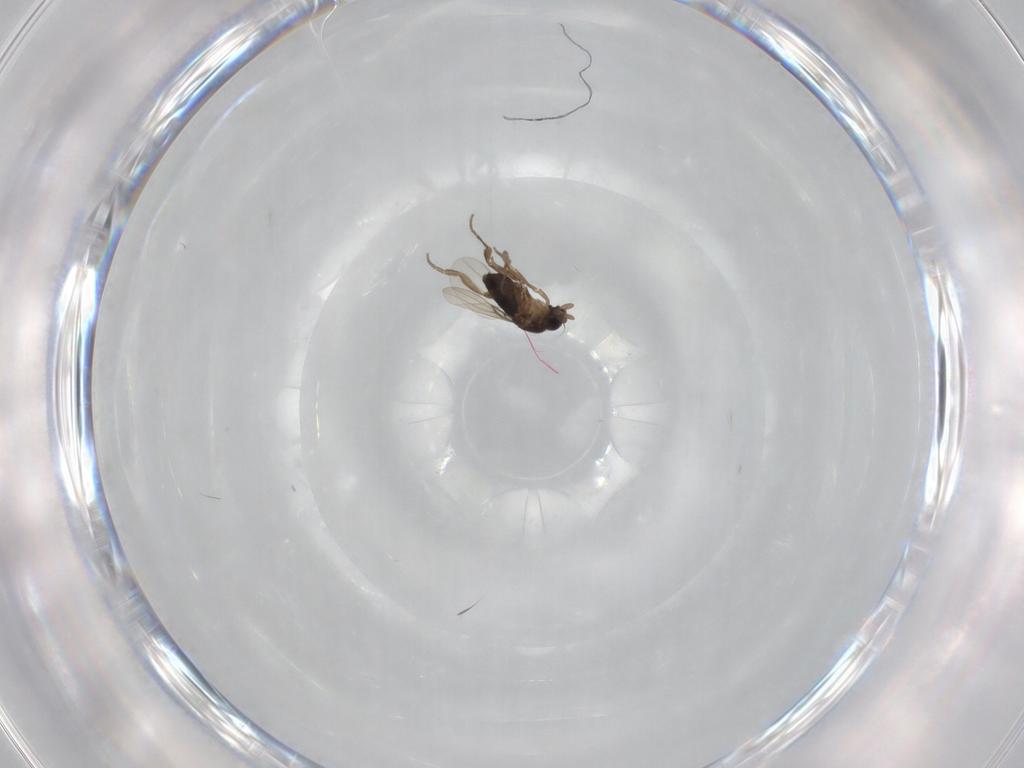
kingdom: Animalia
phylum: Arthropoda
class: Insecta
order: Diptera
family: Phoridae
